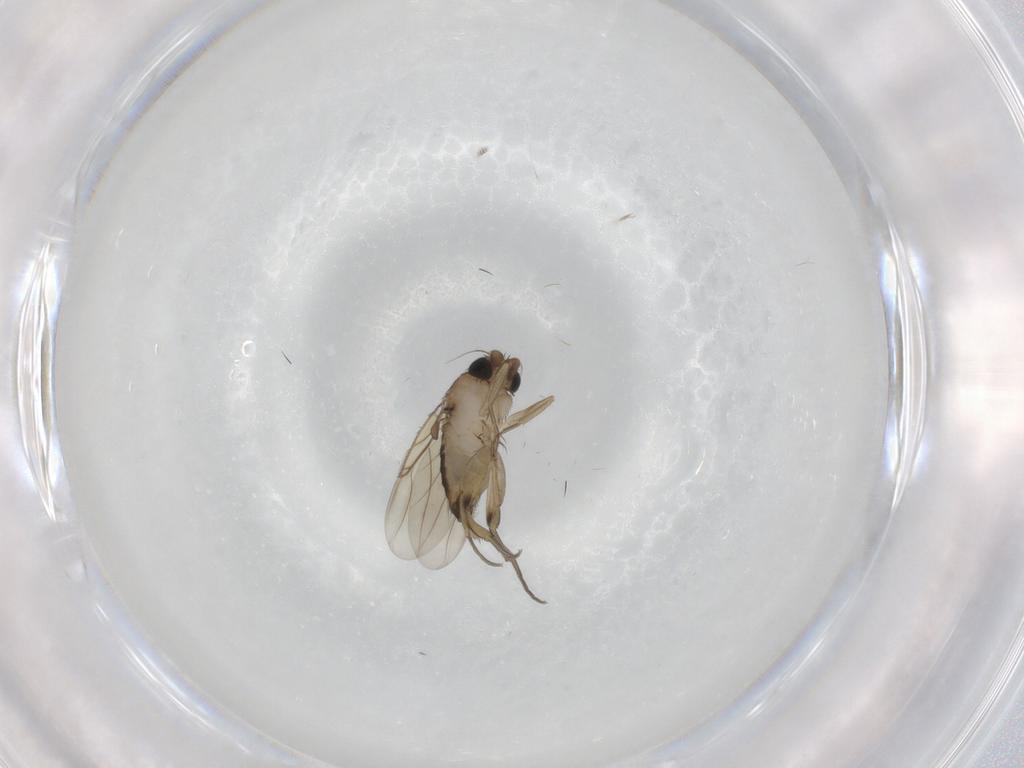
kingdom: Animalia
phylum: Arthropoda
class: Insecta
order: Diptera
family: Phoridae
